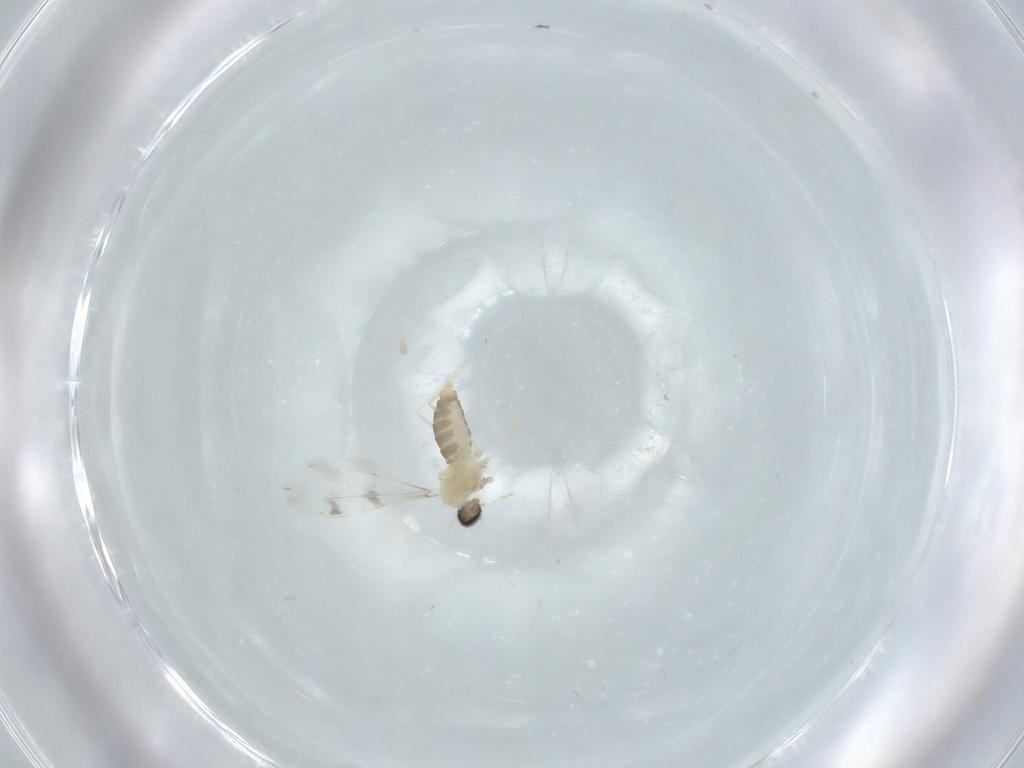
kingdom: Animalia
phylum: Arthropoda
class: Insecta
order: Diptera
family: Cecidomyiidae
